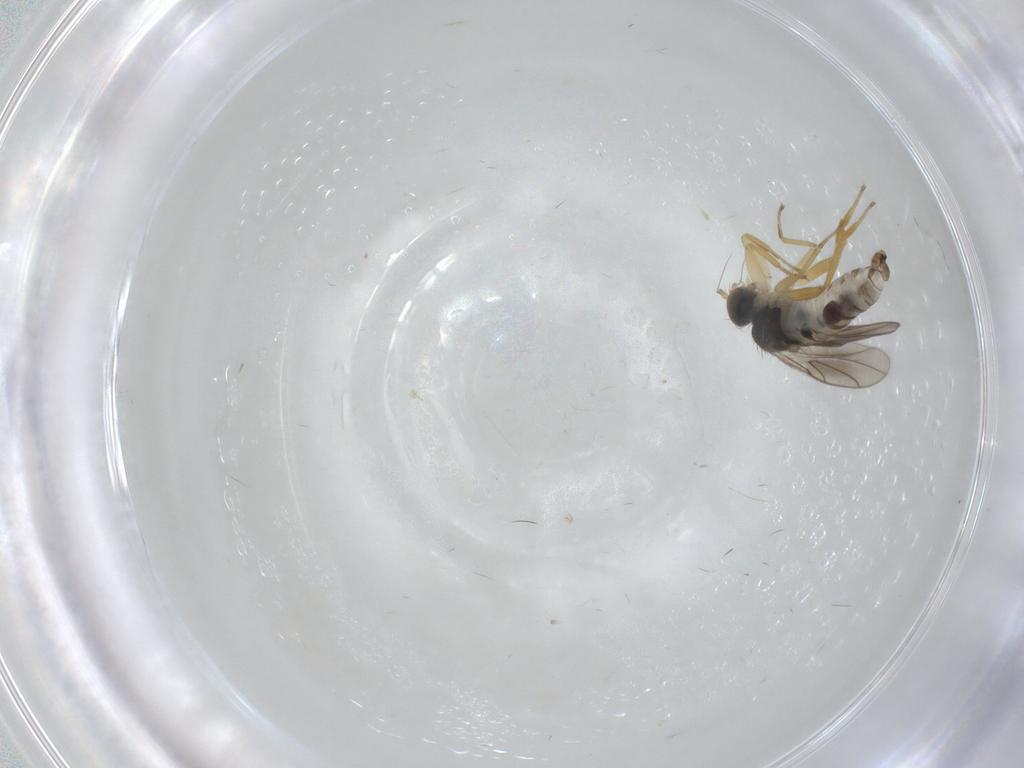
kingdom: Animalia
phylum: Arthropoda
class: Insecta
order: Diptera
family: Hybotidae
